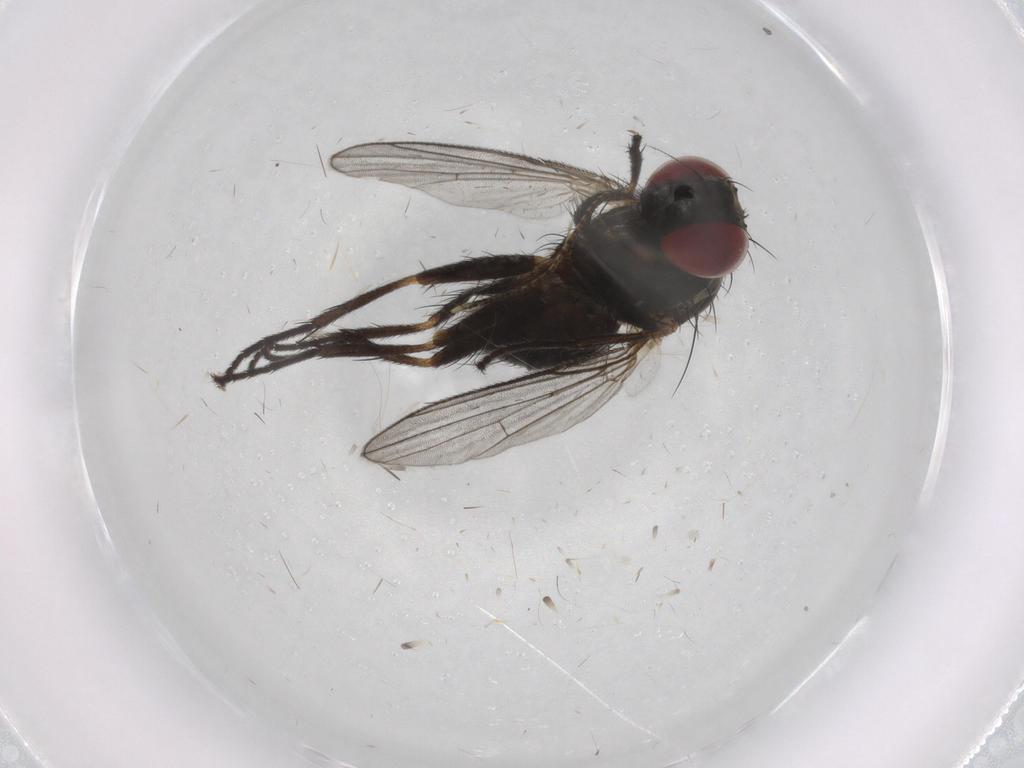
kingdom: Animalia
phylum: Arthropoda
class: Insecta
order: Diptera
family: Muscidae
